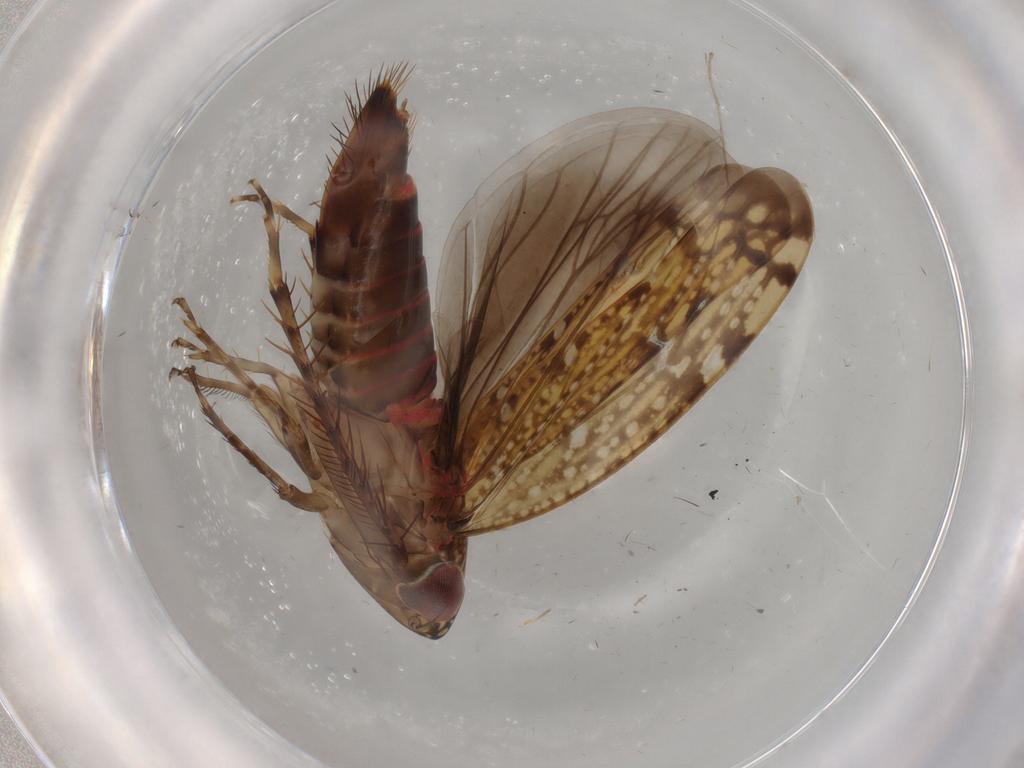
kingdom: Animalia
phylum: Arthropoda
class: Insecta
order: Hemiptera
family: Cicadellidae
